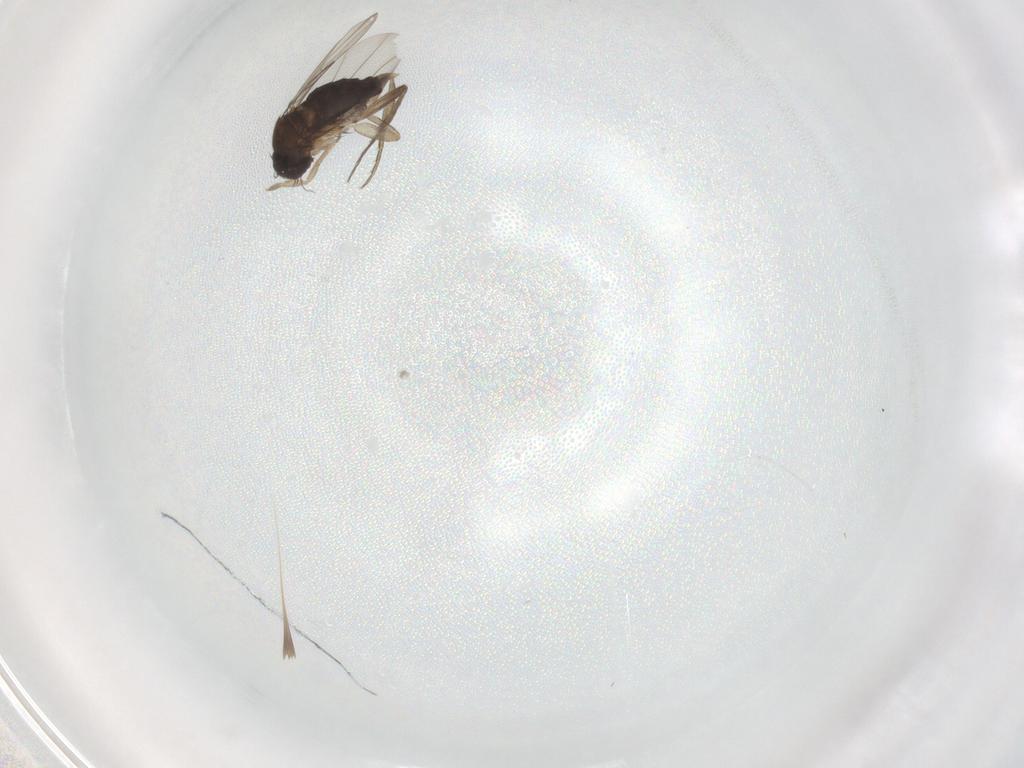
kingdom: Animalia
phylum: Arthropoda
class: Insecta
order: Diptera
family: Phoridae
